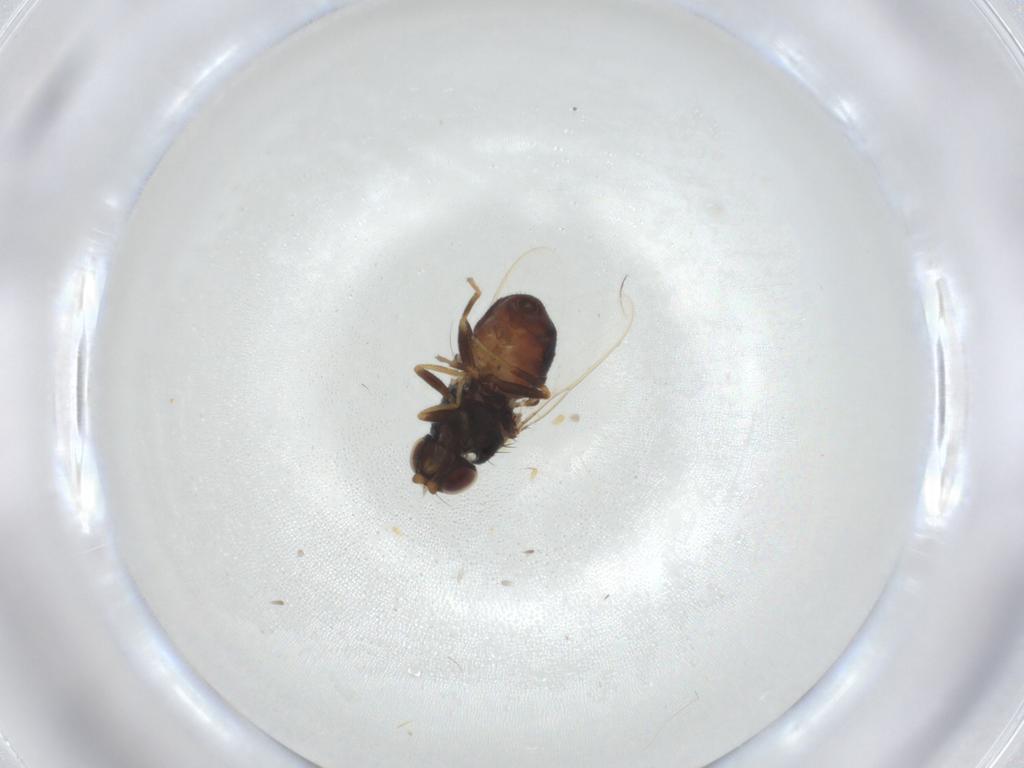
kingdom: Animalia
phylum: Arthropoda
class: Insecta
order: Diptera
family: Chloropidae
